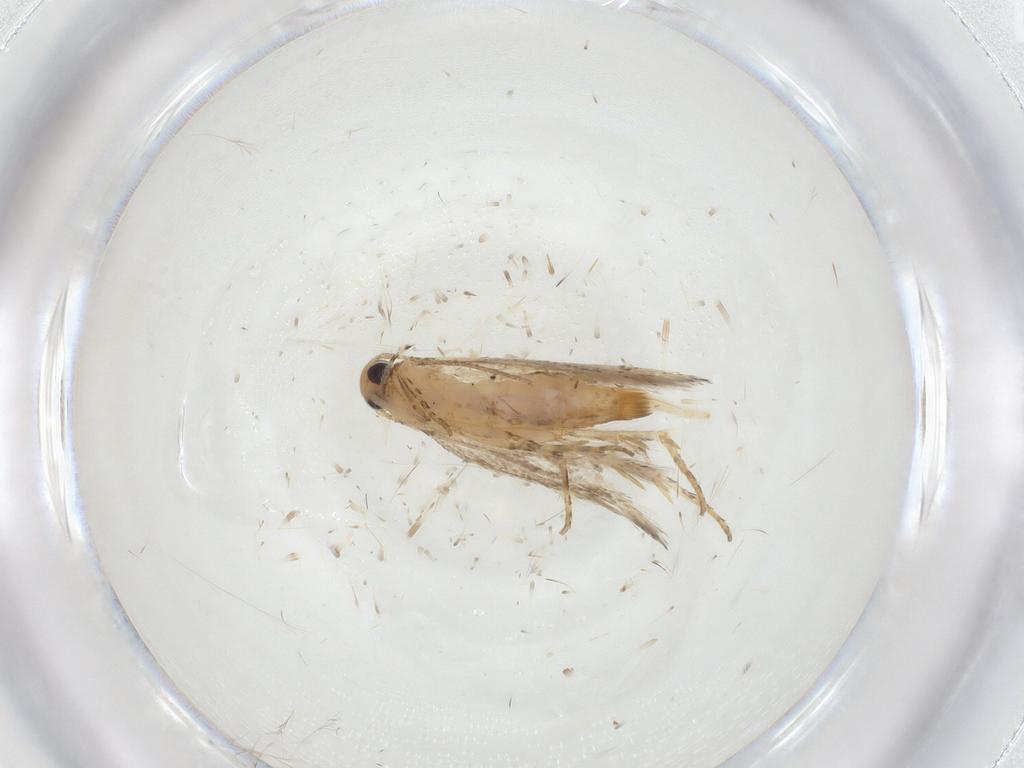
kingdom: Animalia
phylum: Arthropoda
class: Insecta
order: Lepidoptera
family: Gelechiidae
